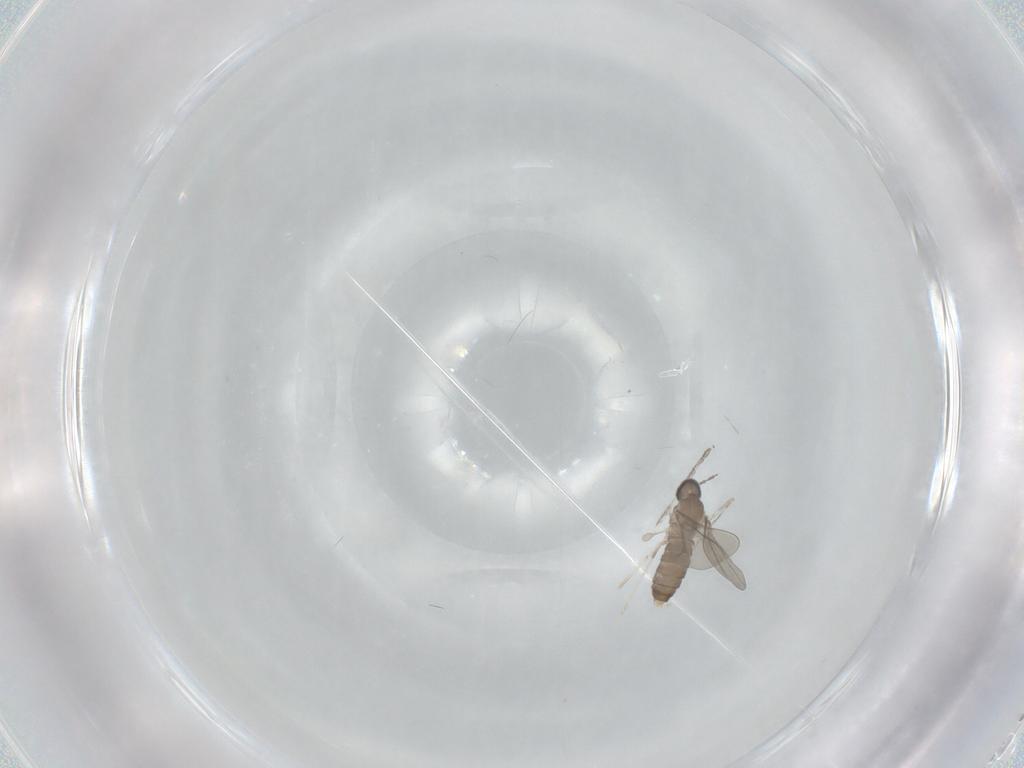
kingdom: Animalia
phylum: Arthropoda
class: Insecta
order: Diptera
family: Cecidomyiidae
